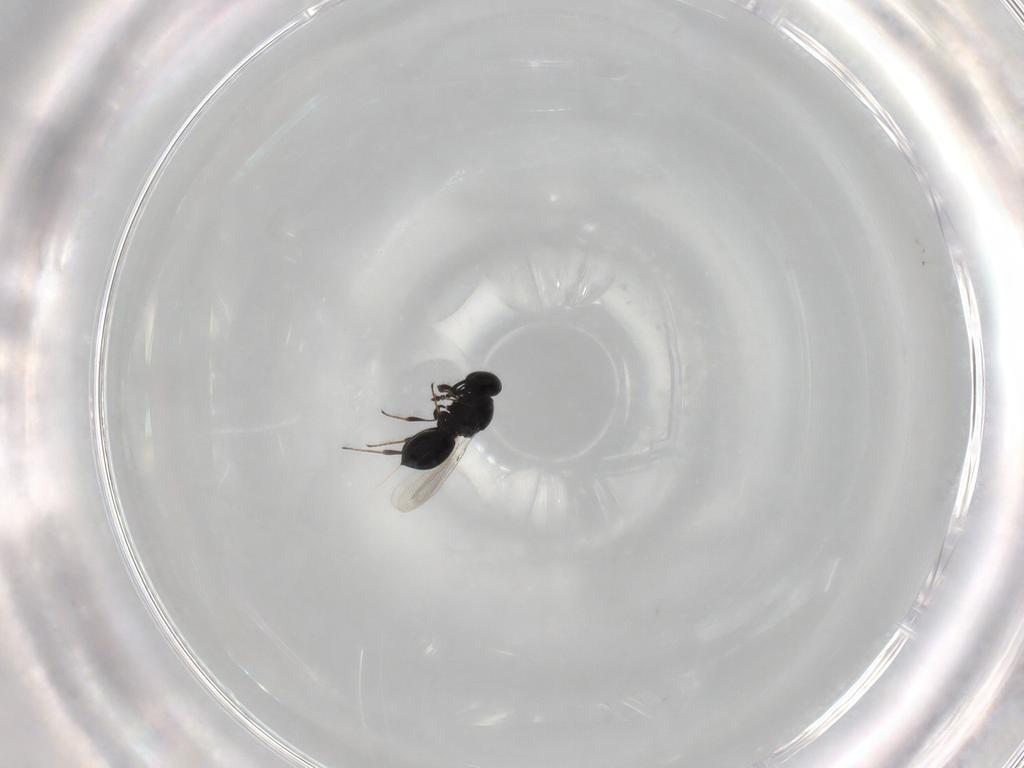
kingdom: Animalia
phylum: Arthropoda
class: Insecta
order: Hymenoptera
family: Platygastridae
